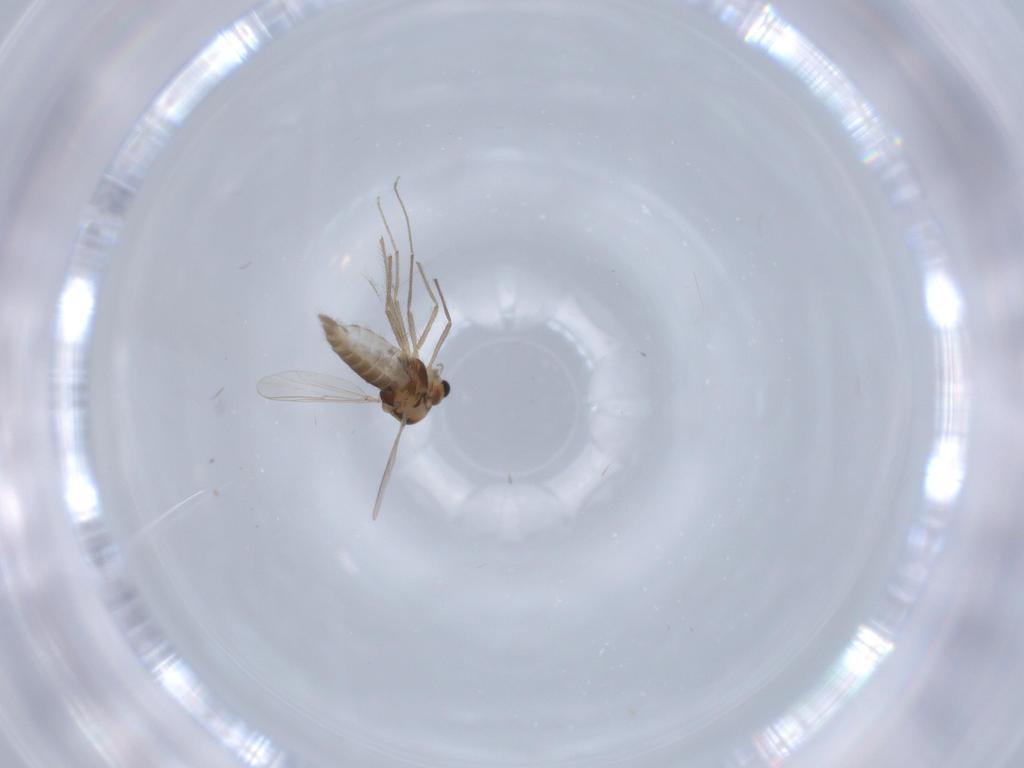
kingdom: Animalia
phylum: Arthropoda
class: Insecta
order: Diptera
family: Chironomidae
